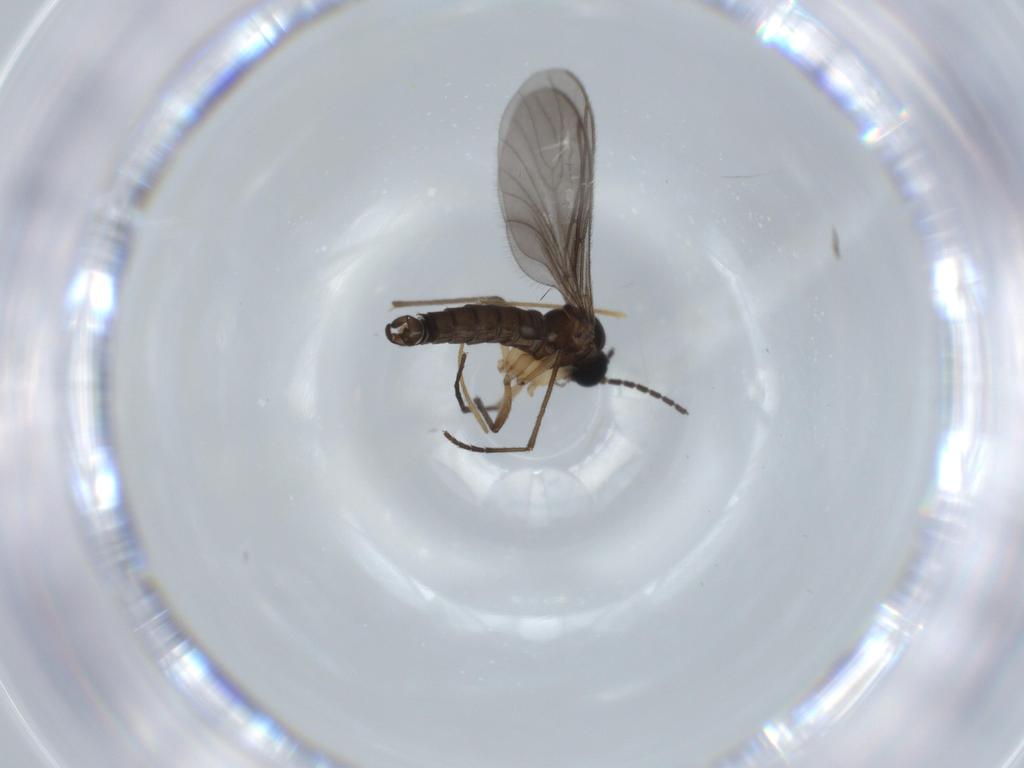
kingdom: Animalia
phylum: Arthropoda
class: Insecta
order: Diptera
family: Sciaridae
